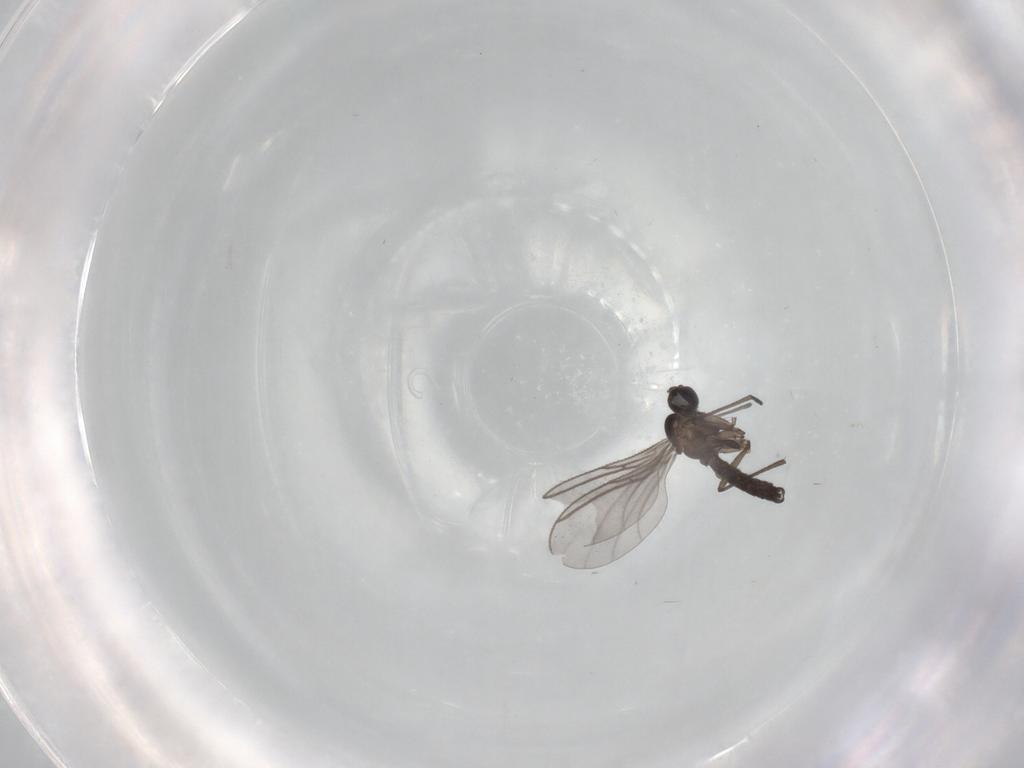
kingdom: Animalia
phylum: Arthropoda
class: Insecta
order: Diptera
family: Sciaridae
